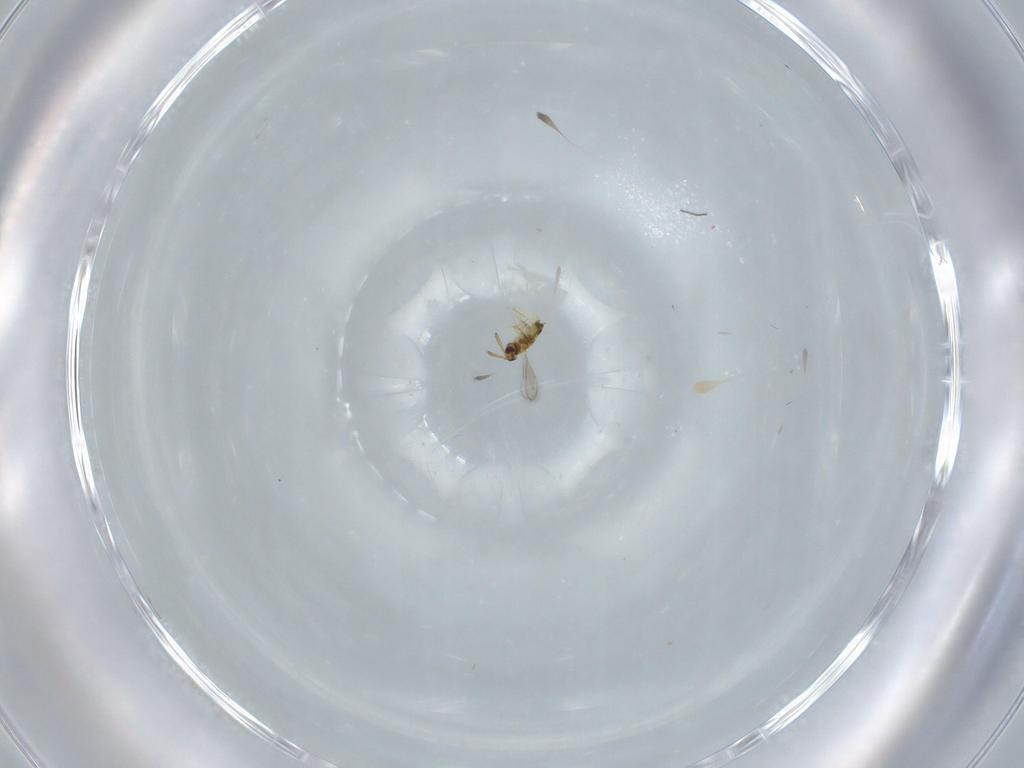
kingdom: Animalia
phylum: Arthropoda
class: Insecta
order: Hymenoptera
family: Aphelinidae
